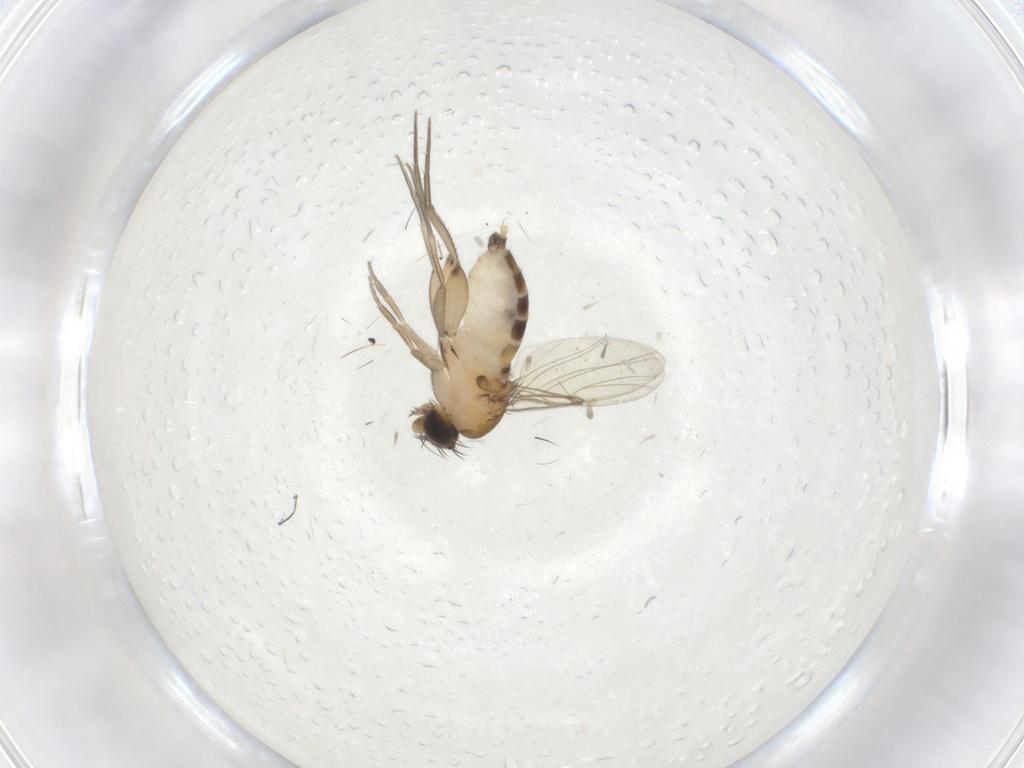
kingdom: Animalia
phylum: Arthropoda
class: Insecta
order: Diptera
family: Phoridae
